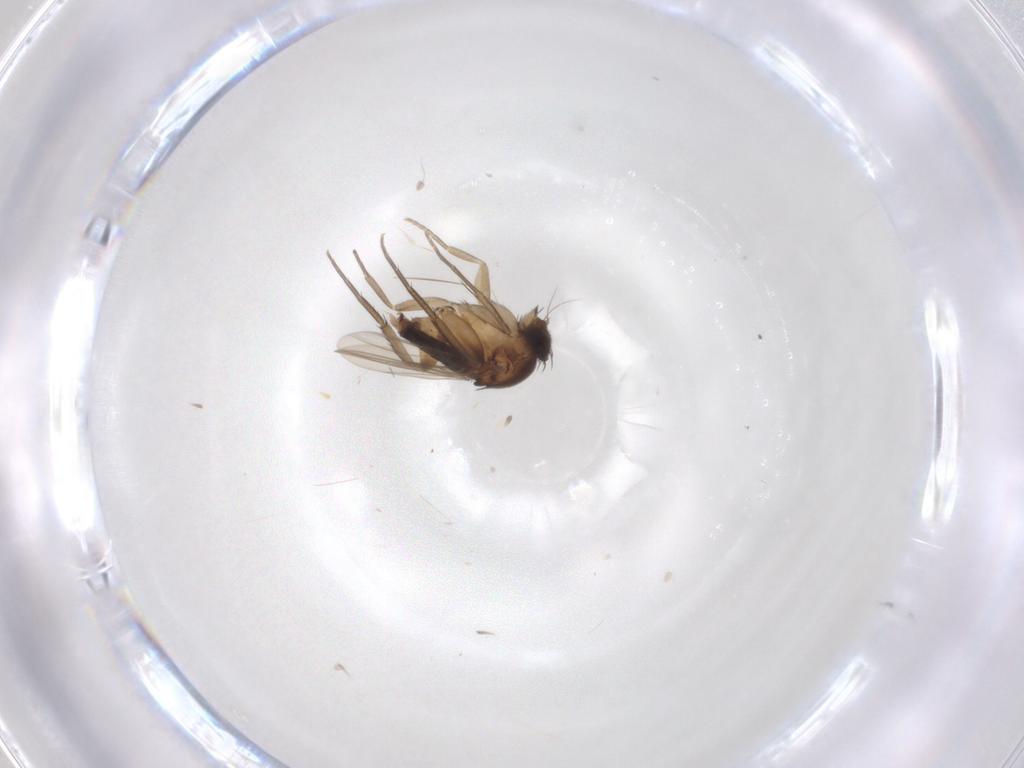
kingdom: Animalia
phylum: Arthropoda
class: Insecta
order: Diptera
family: Phoridae
